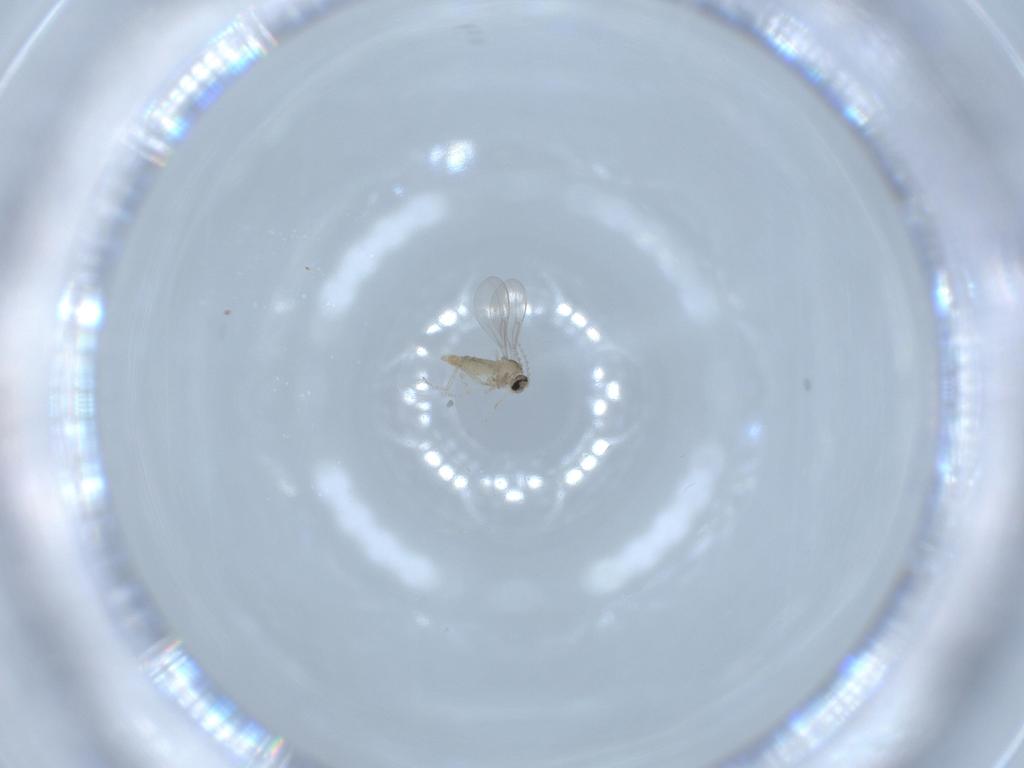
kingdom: Animalia
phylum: Arthropoda
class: Insecta
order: Diptera
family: Cecidomyiidae
